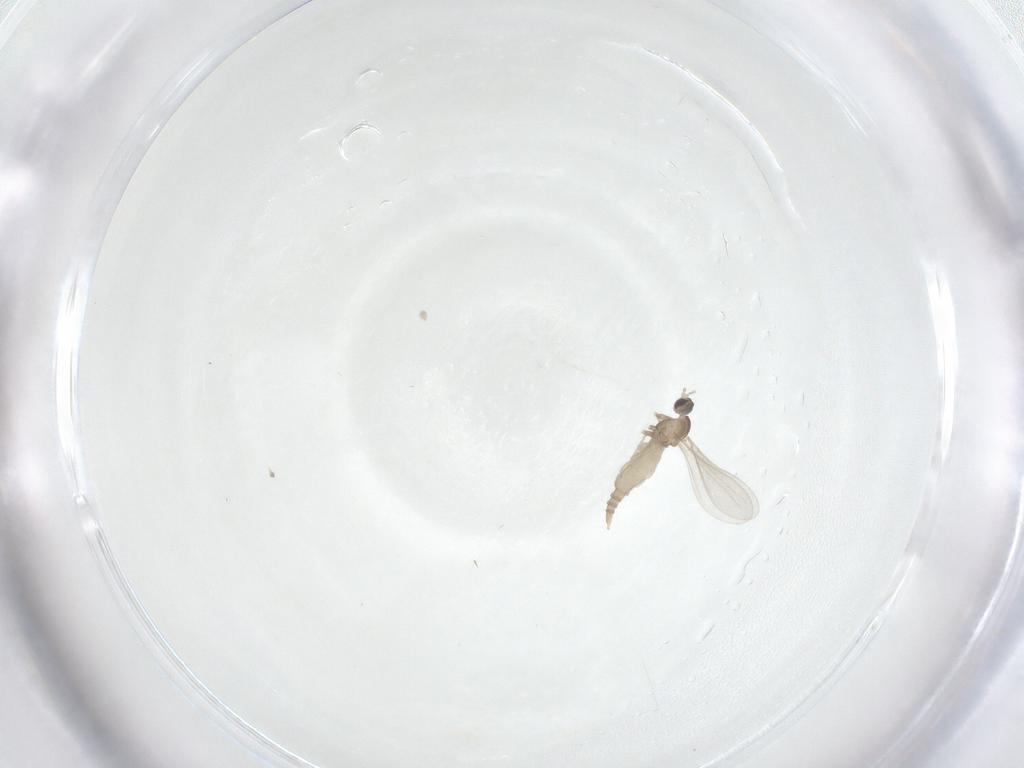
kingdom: Animalia
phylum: Arthropoda
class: Insecta
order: Diptera
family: Cecidomyiidae
